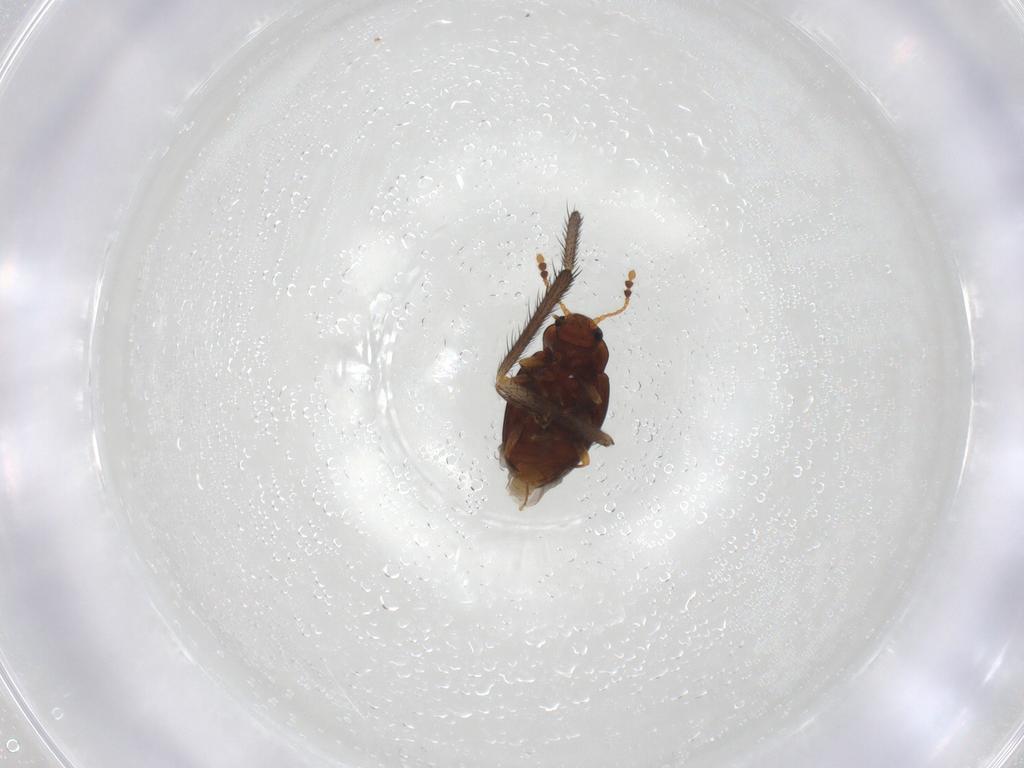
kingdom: Animalia
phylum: Arthropoda
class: Insecta
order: Coleoptera
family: Erotylidae
